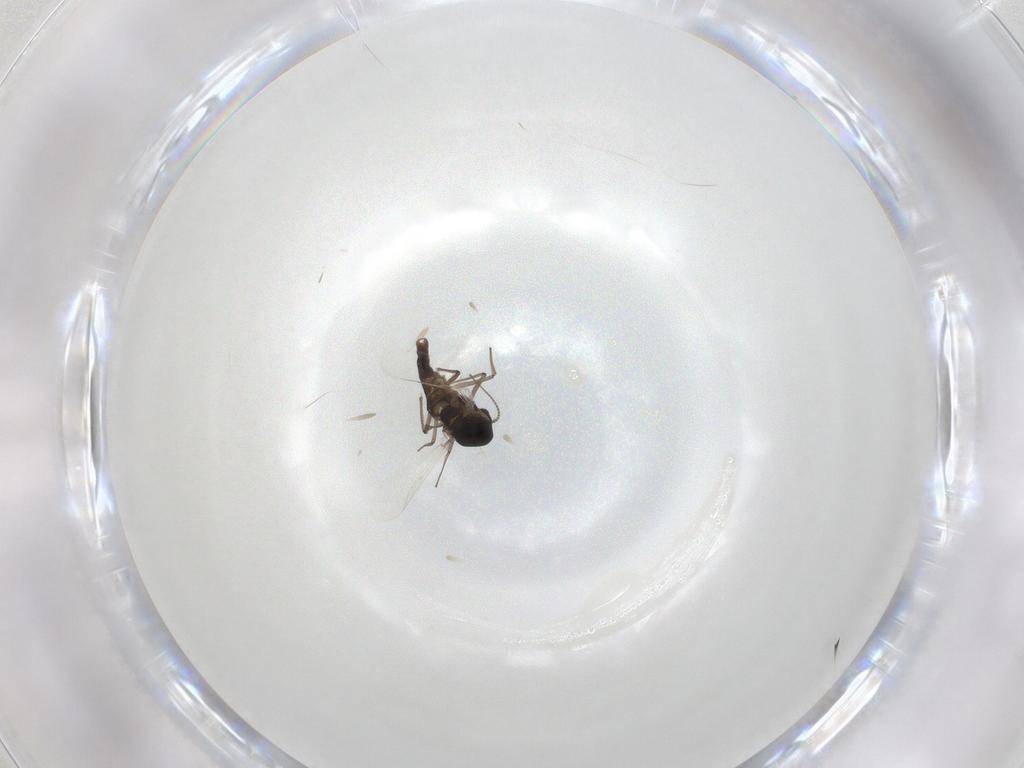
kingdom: Animalia
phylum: Arthropoda
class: Insecta
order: Diptera
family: Chironomidae
